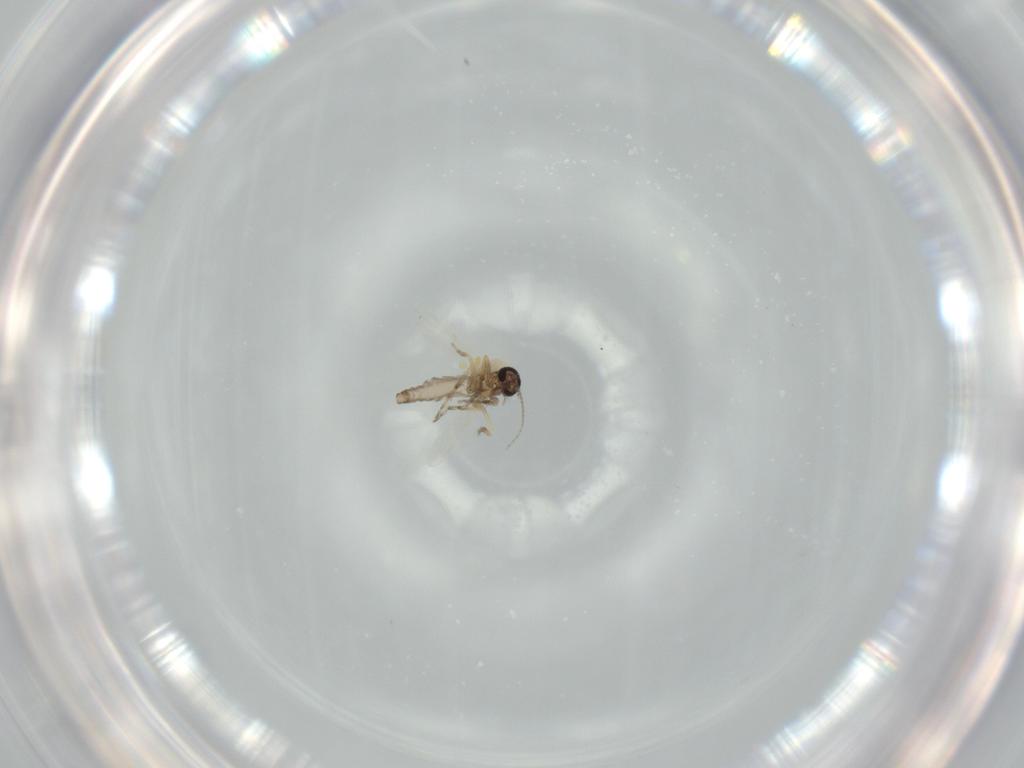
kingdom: Animalia
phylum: Arthropoda
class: Insecta
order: Diptera
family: Ceratopogonidae
